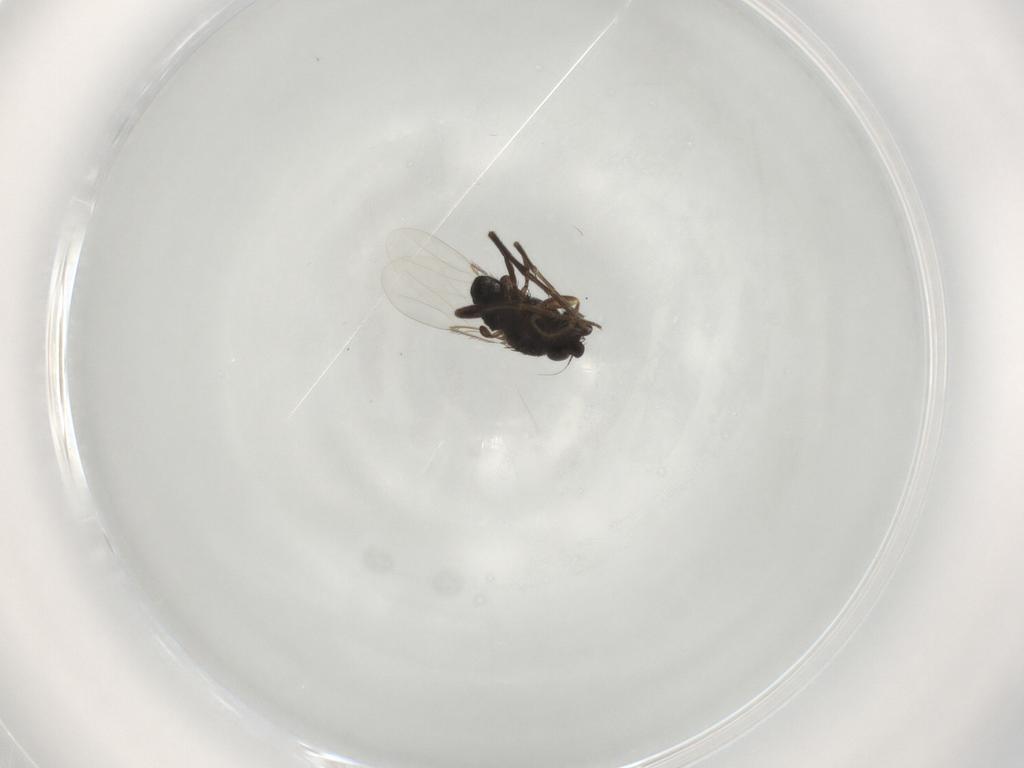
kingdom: Animalia
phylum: Arthropoda
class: Insecta
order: Diptera
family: Phoridae
